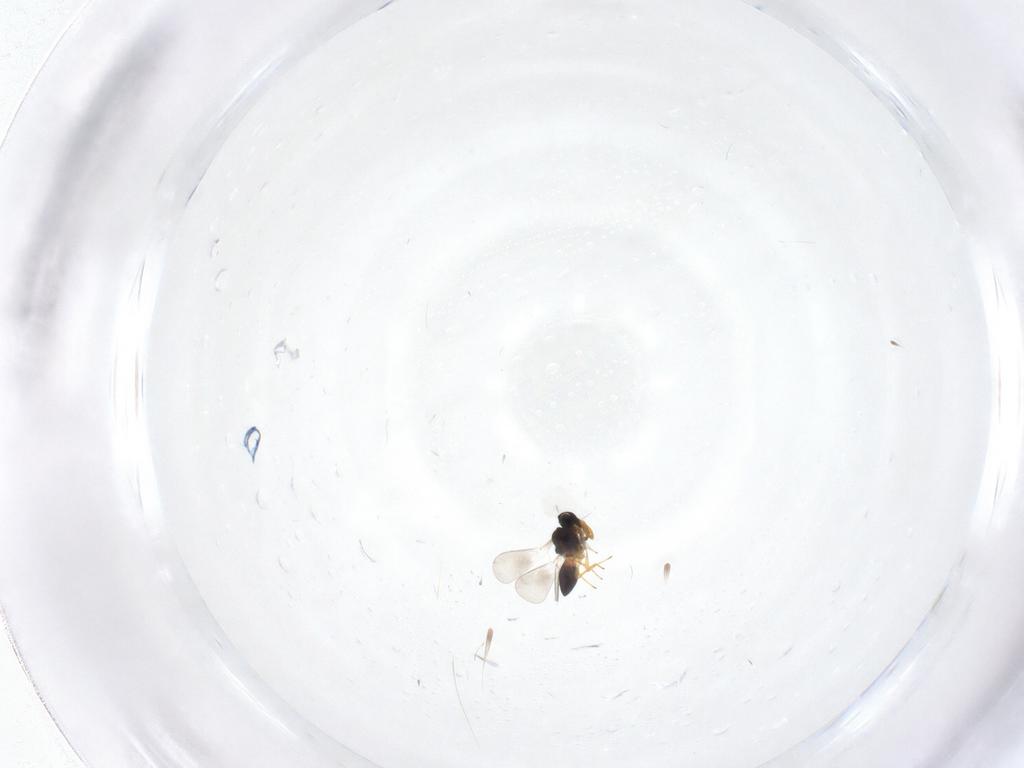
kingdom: Animalia
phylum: Arthropoda
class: Insecta
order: Hymenoptera
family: Platygastridae
